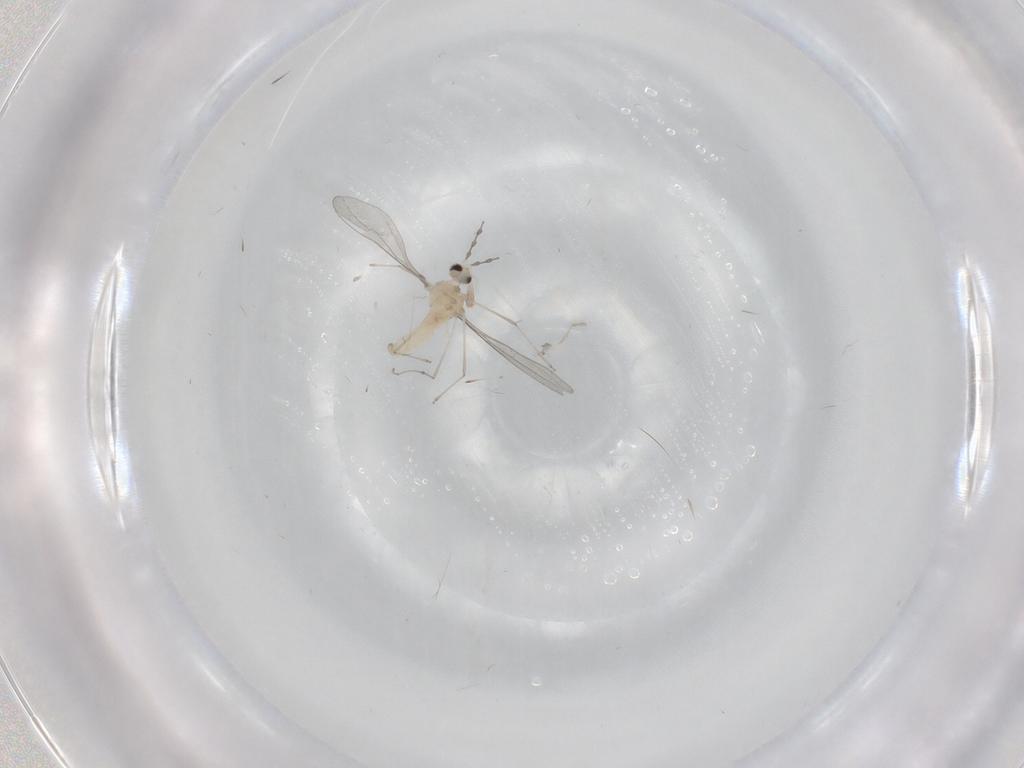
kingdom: Animalia
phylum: Arthropoda
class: Insecta
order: Diptera
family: Cecidomyiidae
